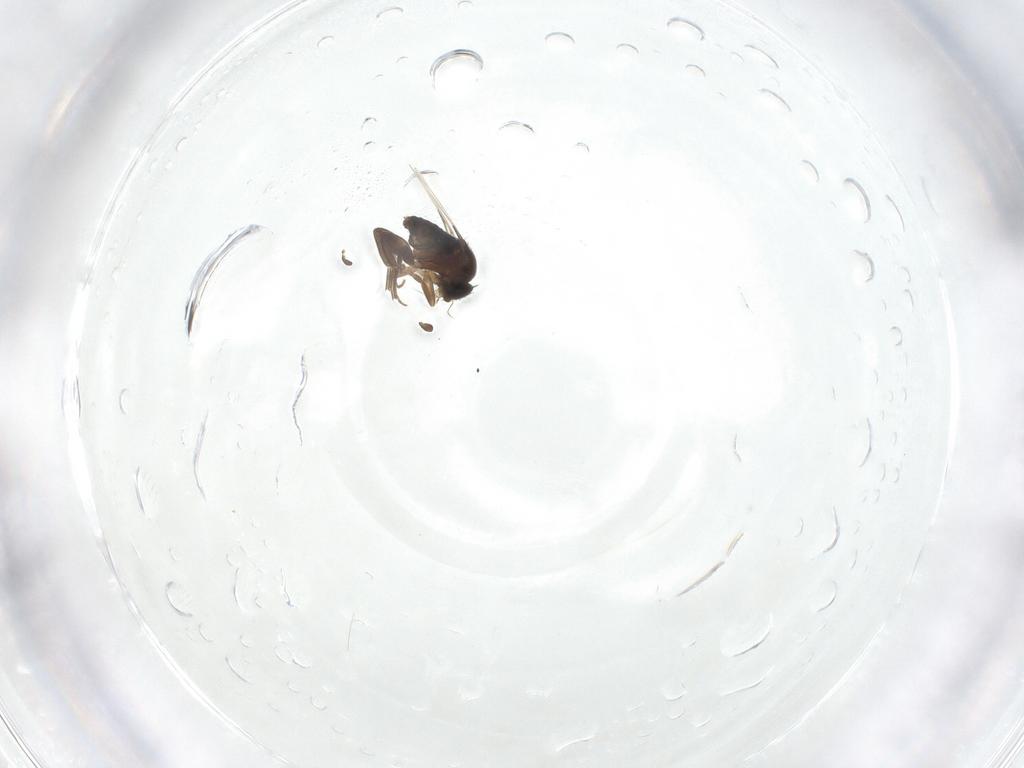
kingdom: Animalia
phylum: Arthropoda
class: Insecta
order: Diptera
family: Phoridae
